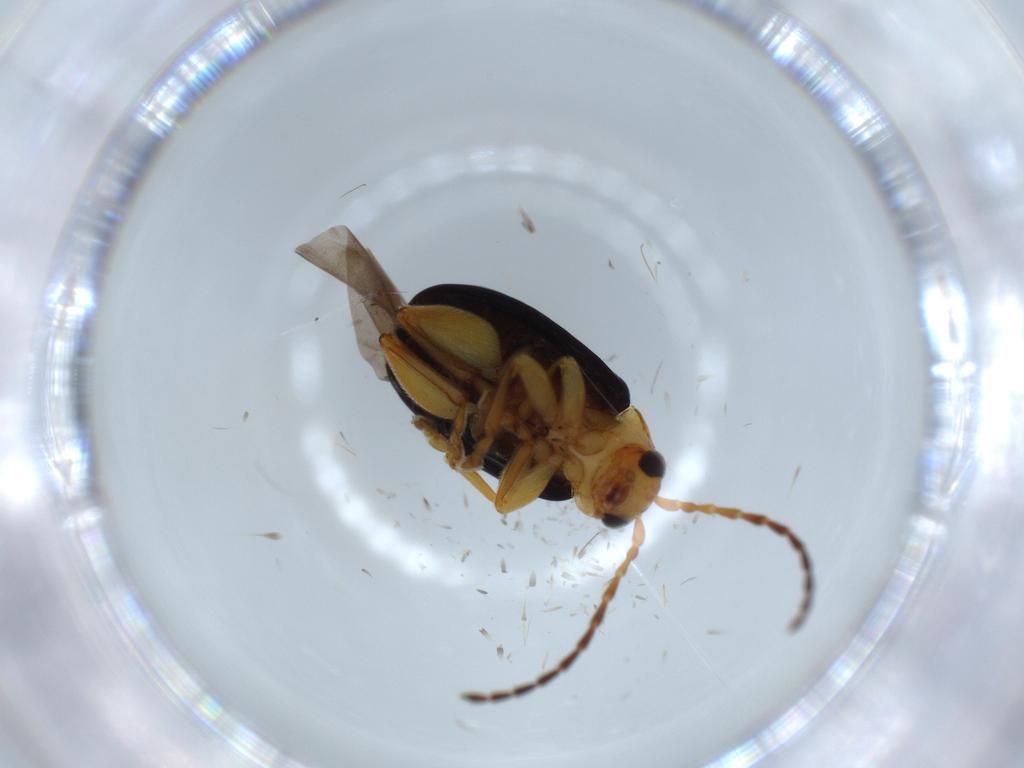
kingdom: Animalia
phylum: Arthropoda
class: Insecta
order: Coleoptera
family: Chrysomelidae
